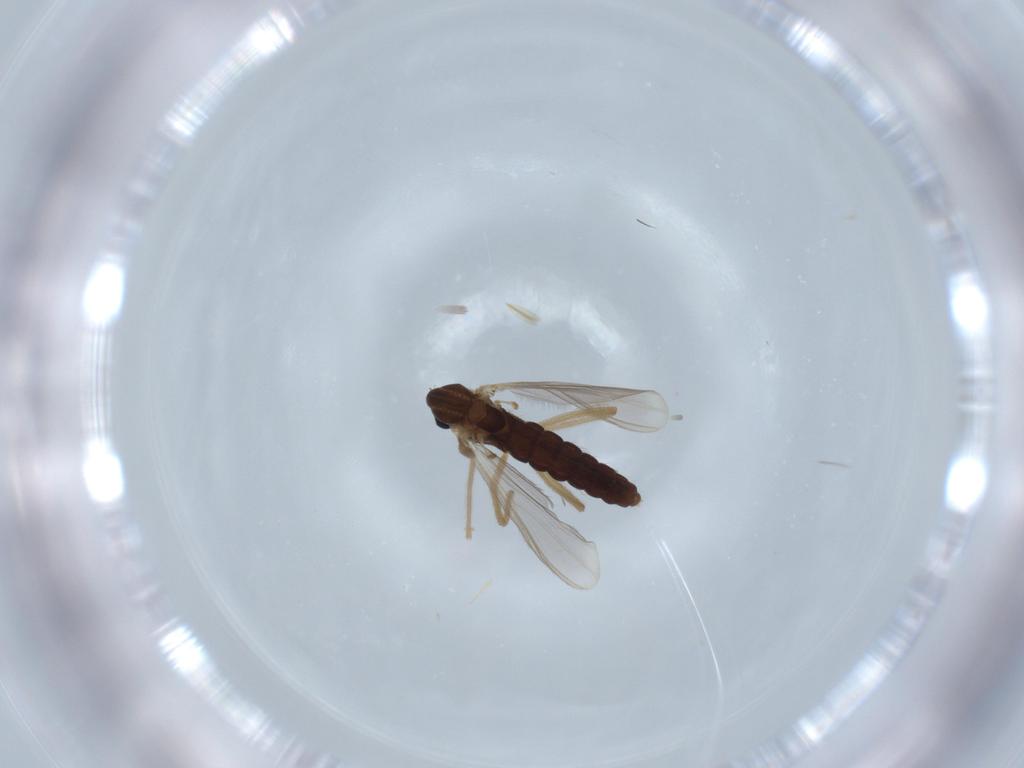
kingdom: Animalia
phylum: Arthropoda
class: Insecta
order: Diptera
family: Chironomidae
